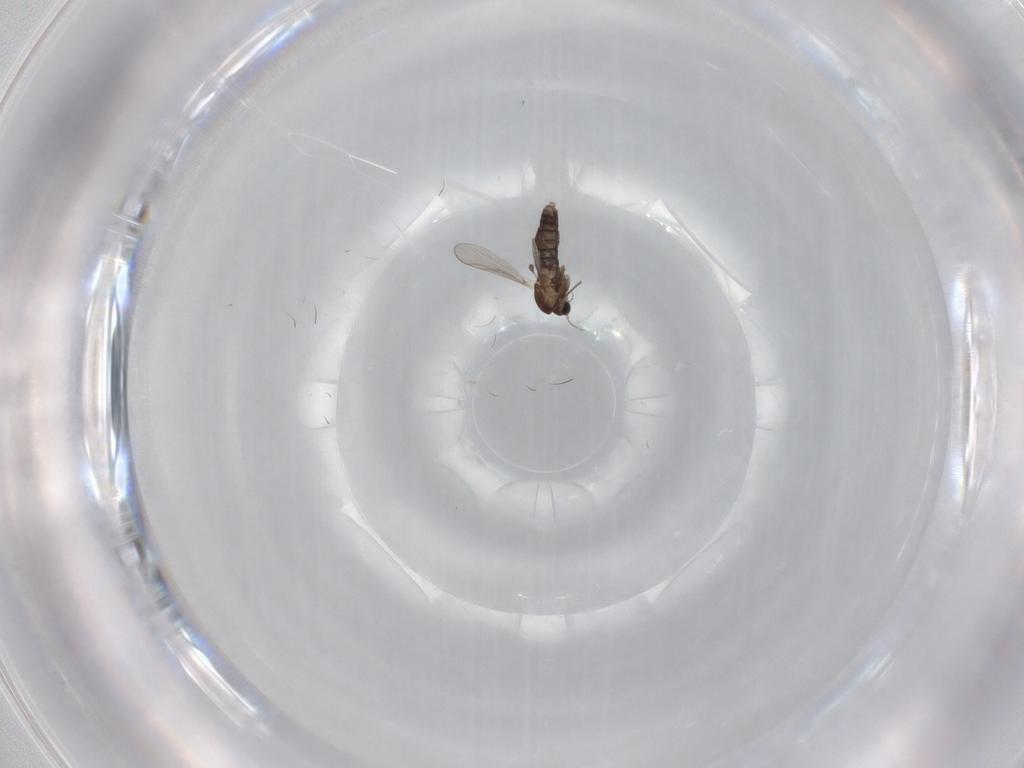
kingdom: Animalia
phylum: Arthropoda
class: Insecta
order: Diptera
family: Chironomidae
